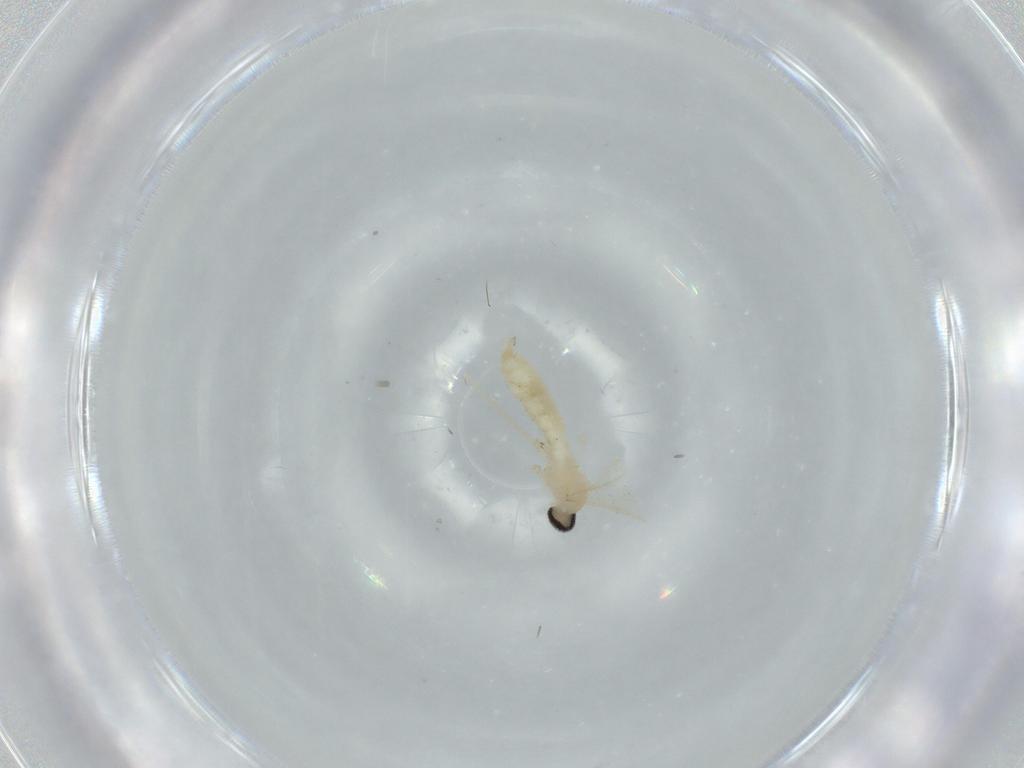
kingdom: Animalia
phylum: Arthropoda
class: Insecta
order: Diptera
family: Cecidomyiidae
